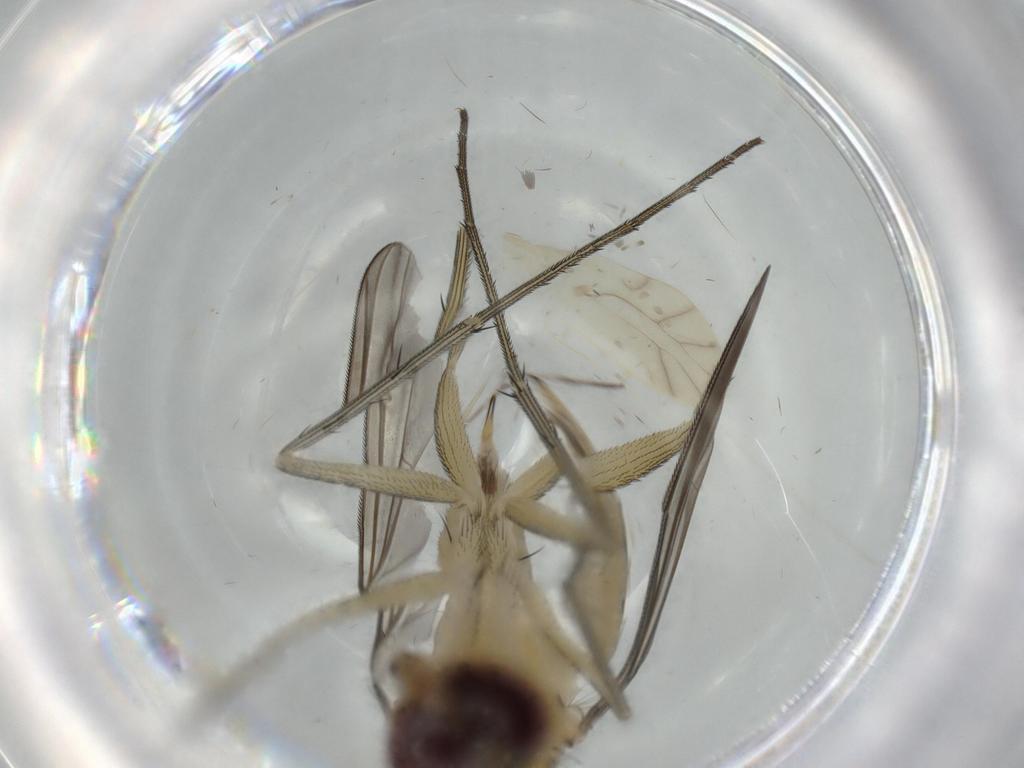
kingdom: Animalia
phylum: Arthropoda
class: Insecta
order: Diptera
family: Dolichopodidae
